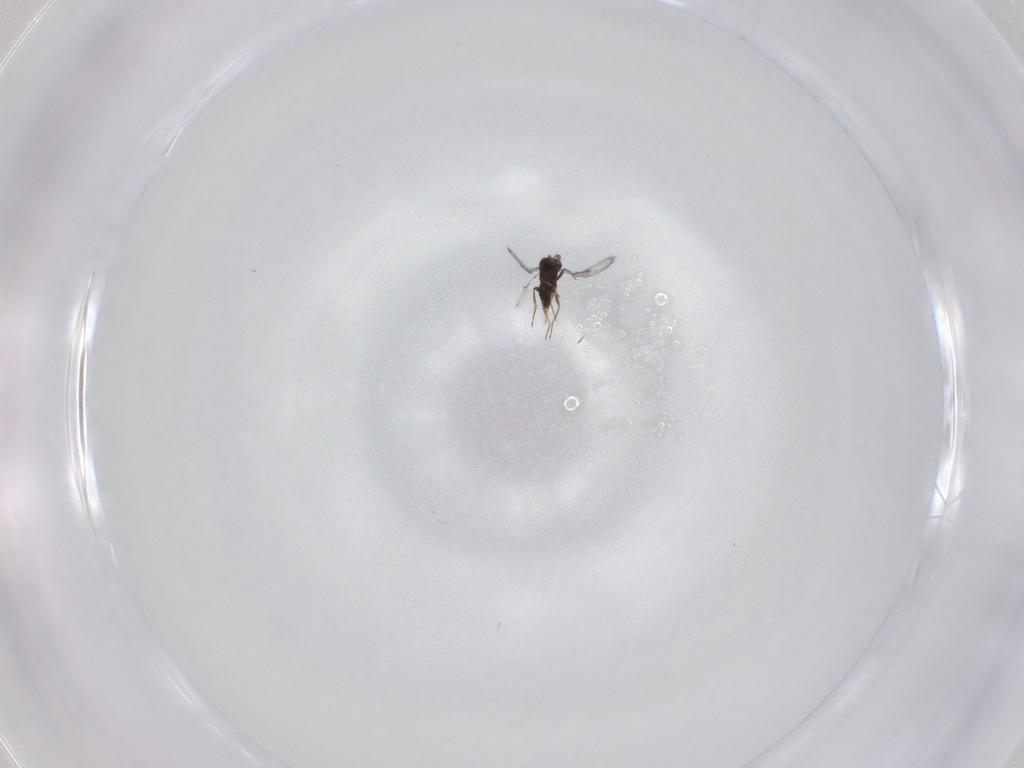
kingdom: Animalia
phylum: Arthropoda
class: Insecta
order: Hymenoptera
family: Trichogrammatidae
